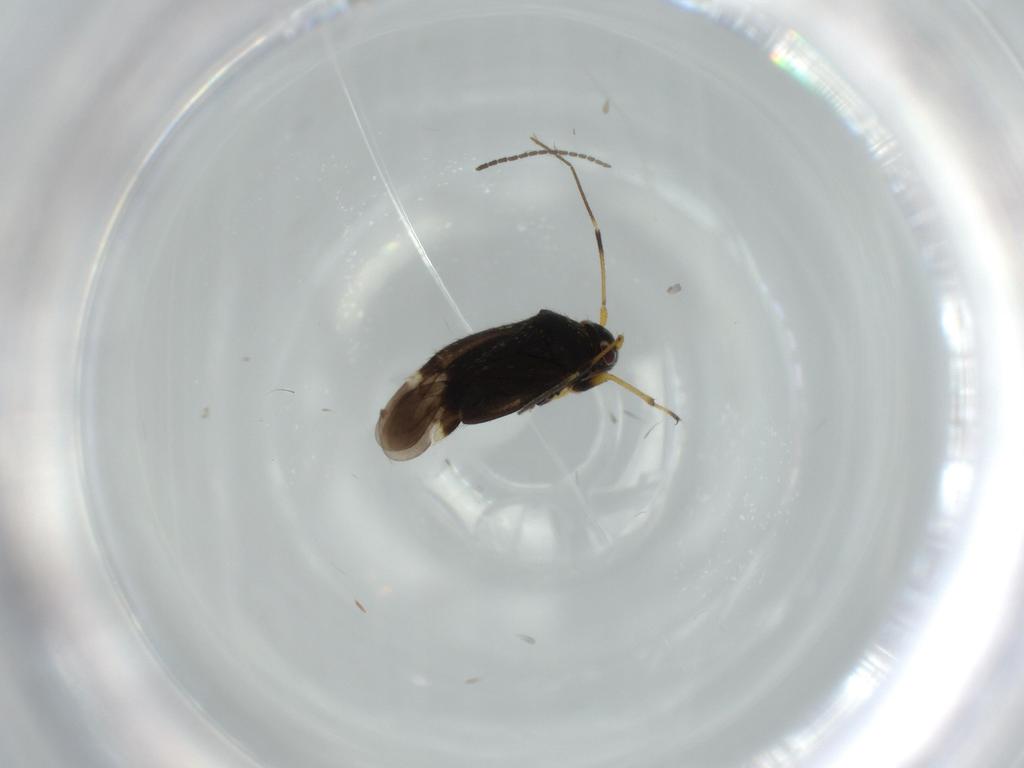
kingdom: Animalia
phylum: Arthropoda
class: Insecta
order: Hemiptera
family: Miridae
